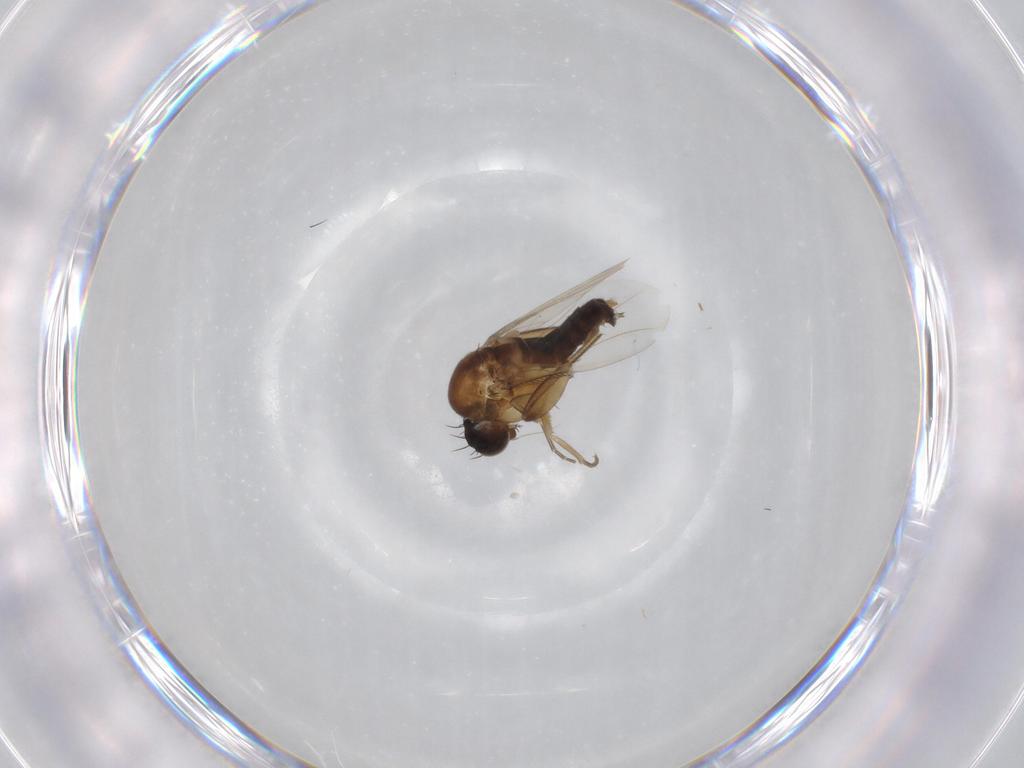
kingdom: Animalia
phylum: Arthropoda
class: Insecta
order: Diptera
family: Phoridae
